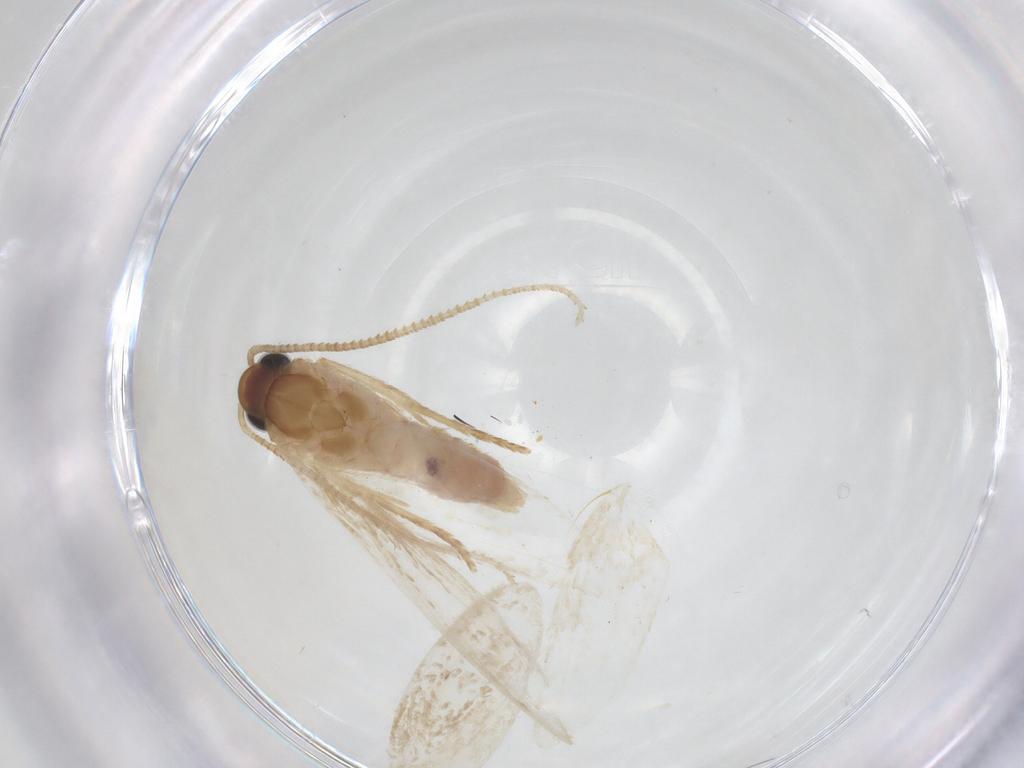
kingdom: Animalia
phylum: Arthropoda
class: Insecta
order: Lepidoptera
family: Autostichidae
